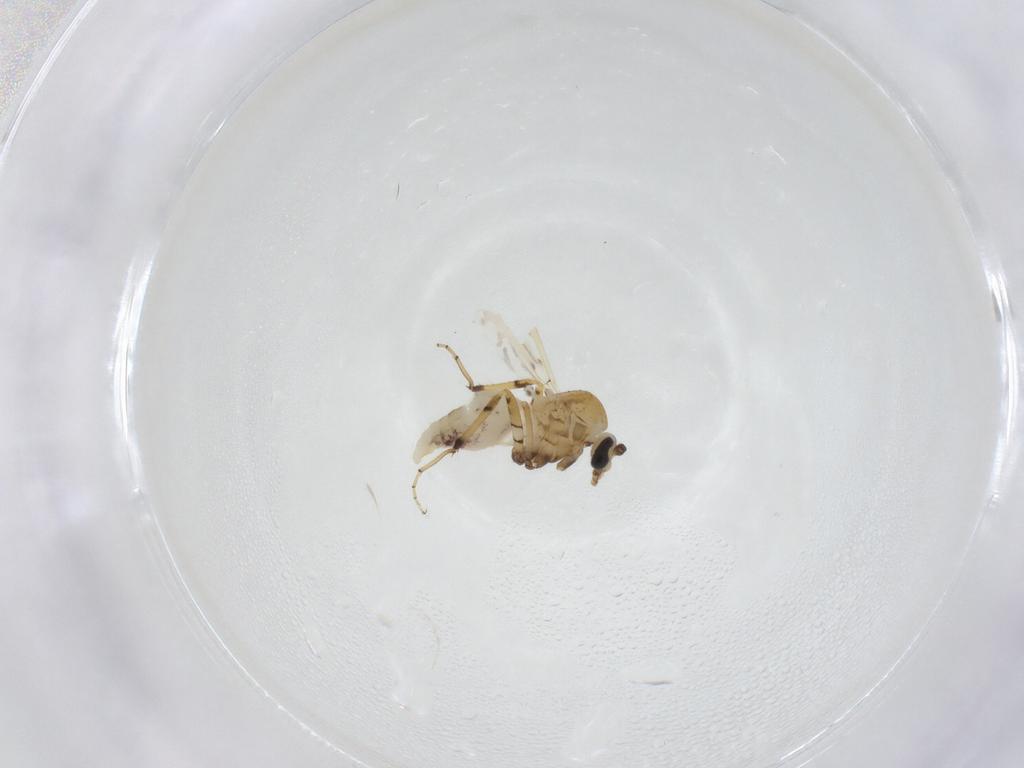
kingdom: Animalia
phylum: Arthropoda
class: Insecta
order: Diptera
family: Ceratopogonidae
